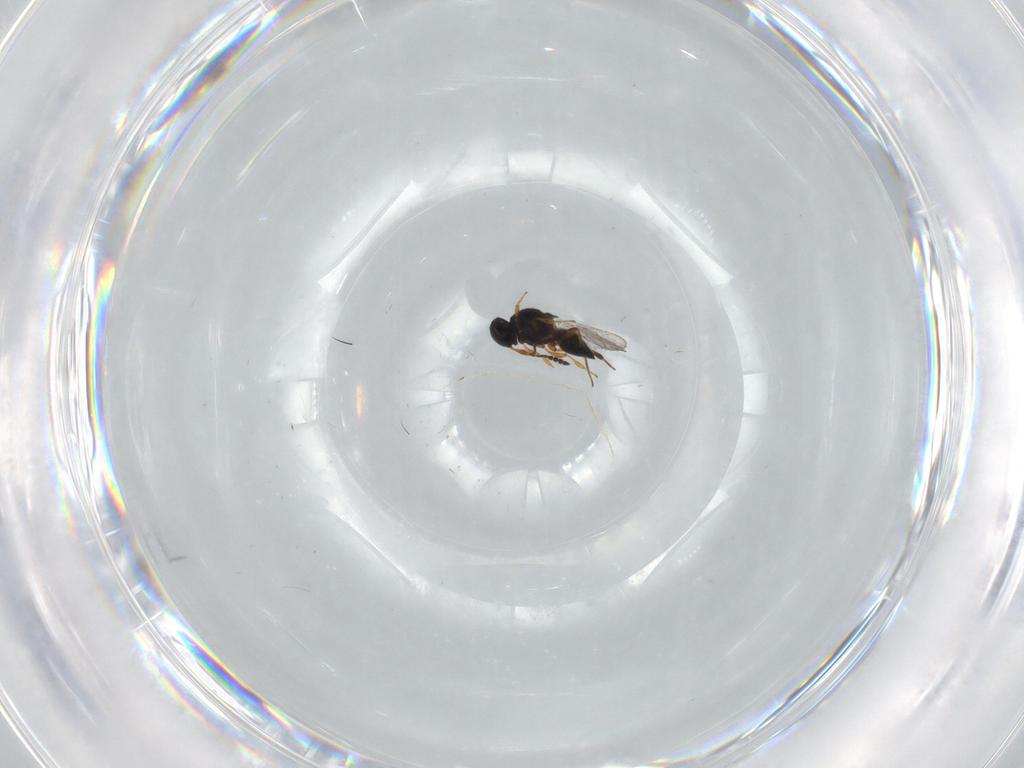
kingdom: Animalia
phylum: Arthropoda
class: Insecta
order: Hymenoptera
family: Platygastridae
